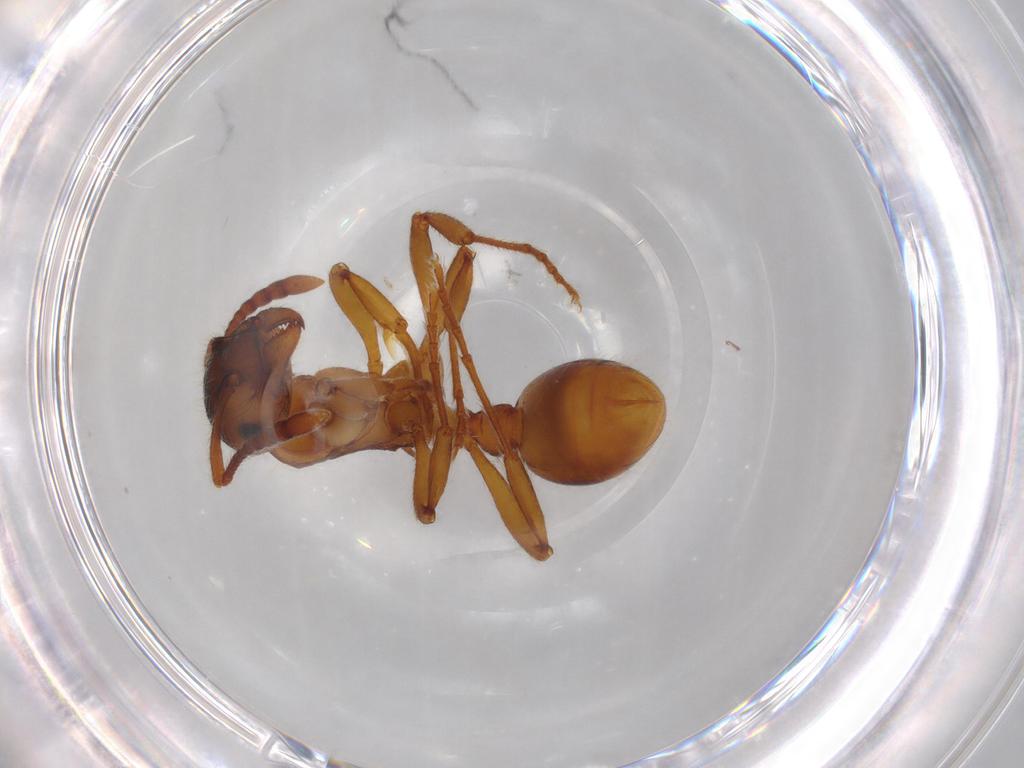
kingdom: Animalia
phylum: Arthropoda
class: Insecta
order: Hymenoptera
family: Formicidae
